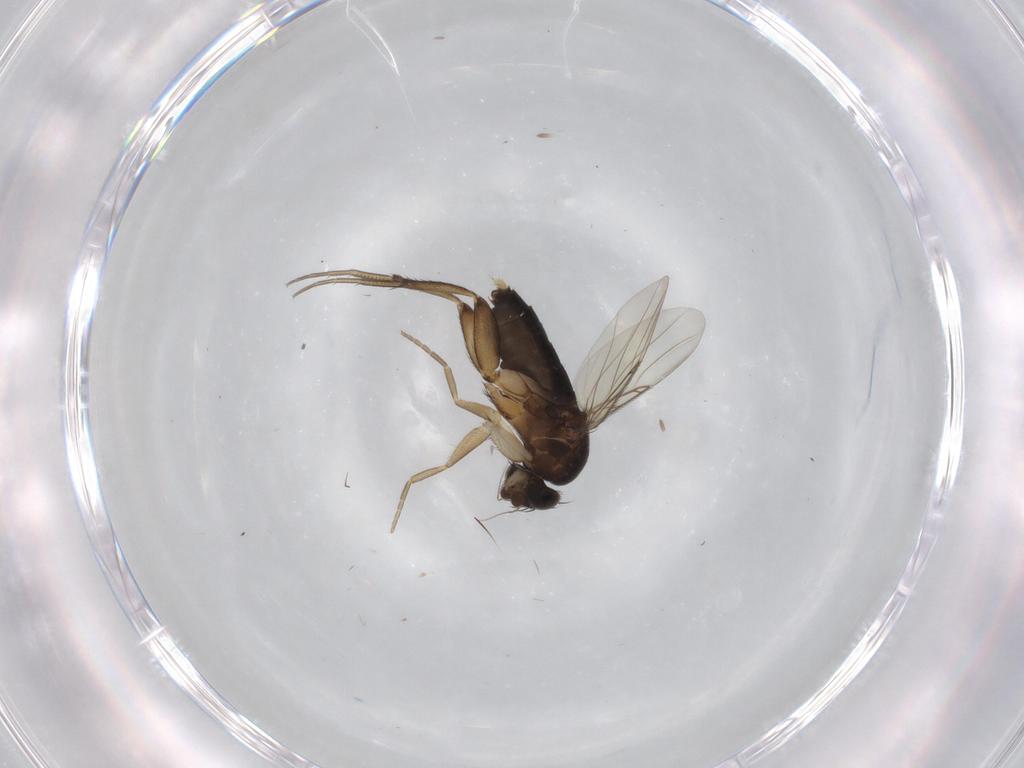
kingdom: Animalia
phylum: Arthropoda
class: Insecta
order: Diptera
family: Phoridae
